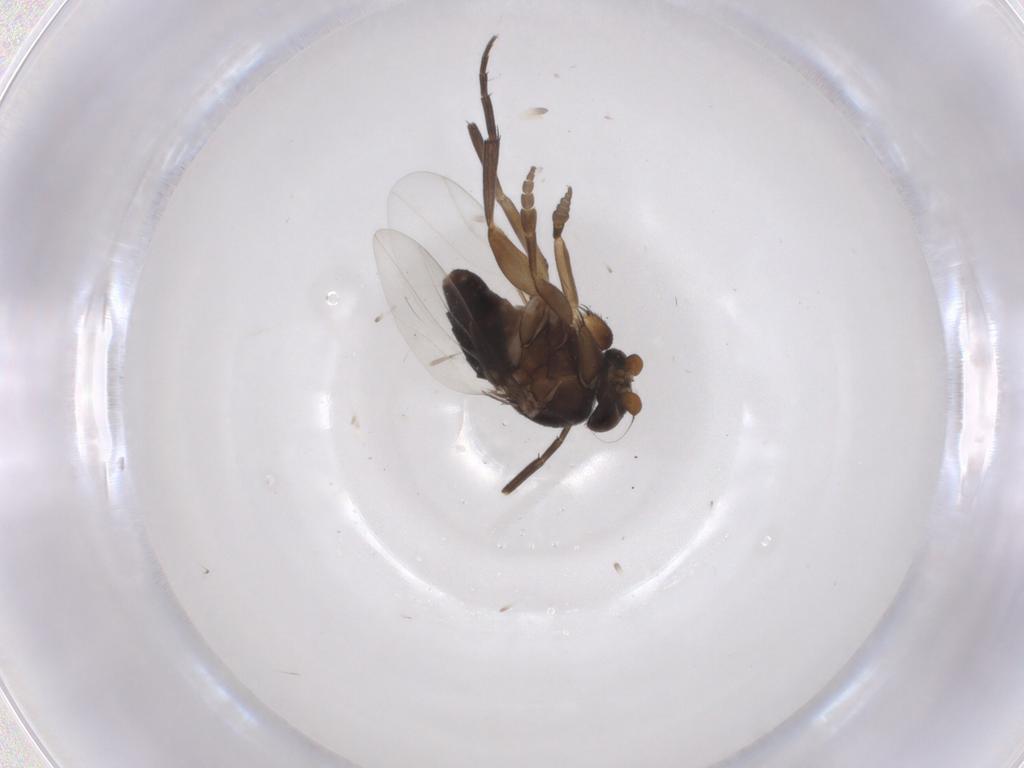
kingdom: Animalia
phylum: Arthropoda
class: Insecta
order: Diptera
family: Phoridae
